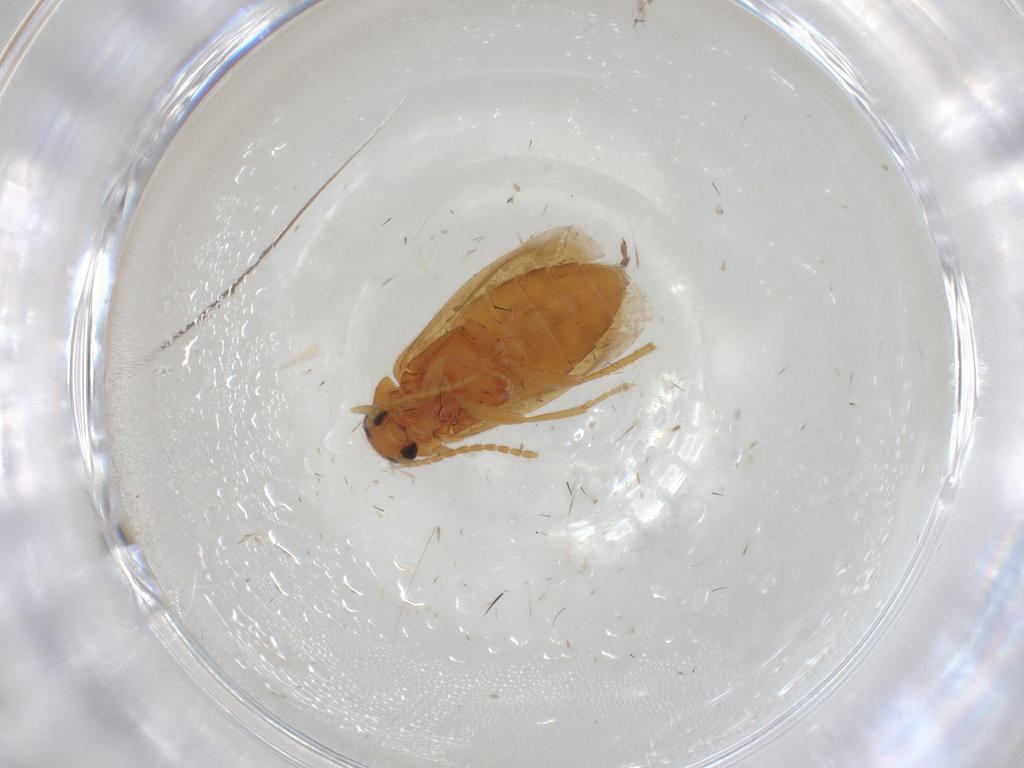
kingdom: Animalia
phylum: Arthropoda
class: Insecta
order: Coleoptera
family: Scraptiidae
